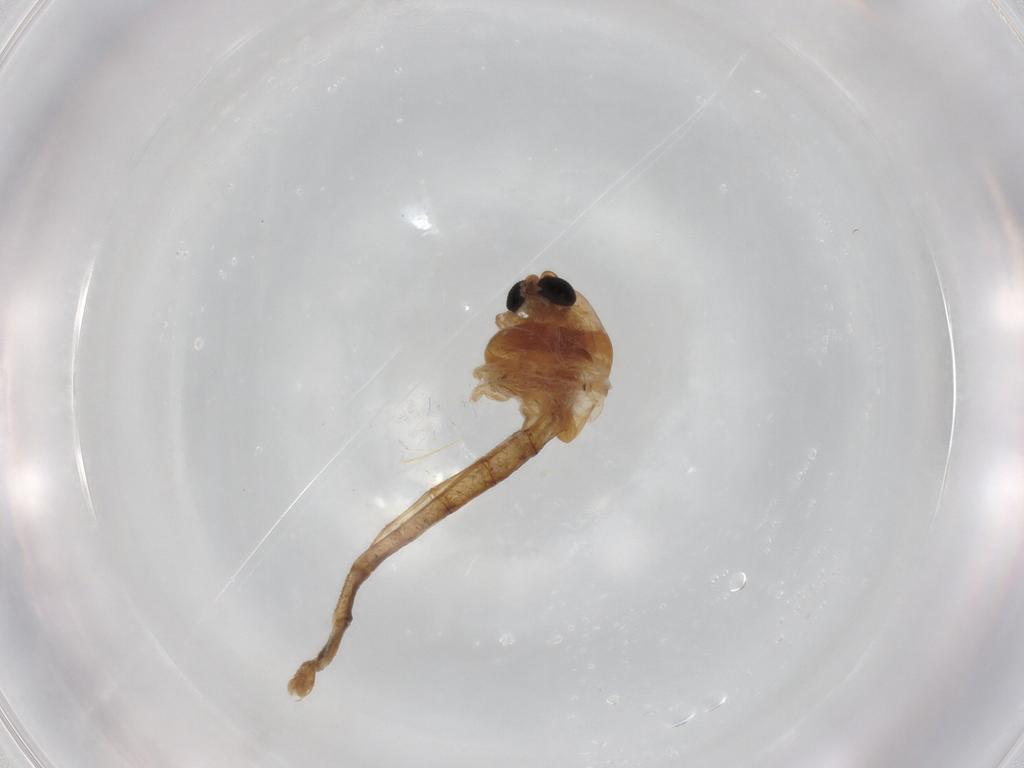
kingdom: Animalia
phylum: Arthropoda
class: Insecta
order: Diptera
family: Chironomidae
